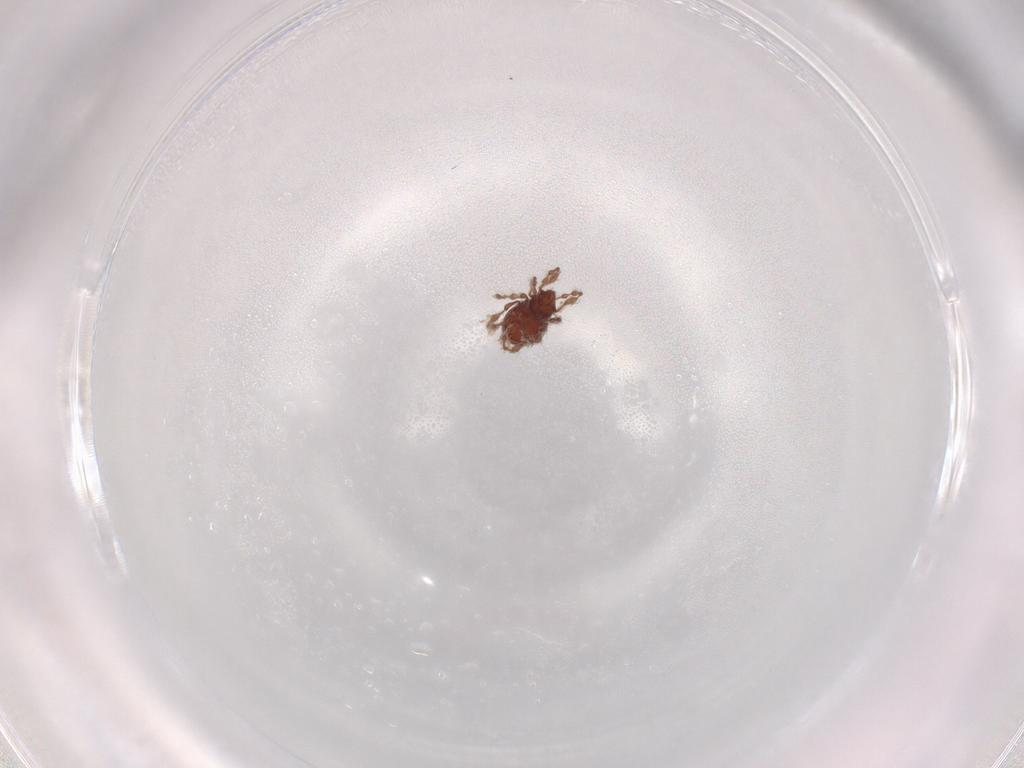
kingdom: Animalia
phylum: Arthropoda
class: Arachnida
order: Sarcoptiformes
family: Damaeidae
